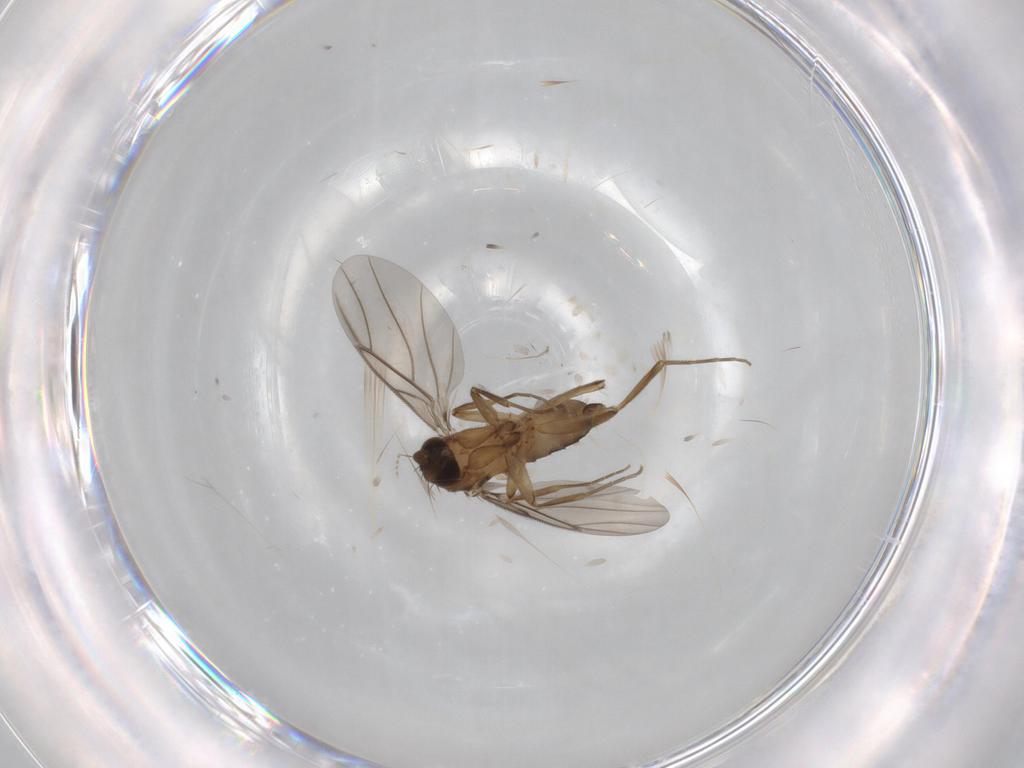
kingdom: Animalia
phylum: Arthropoda
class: Insecta
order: Diptera
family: Phoridae
